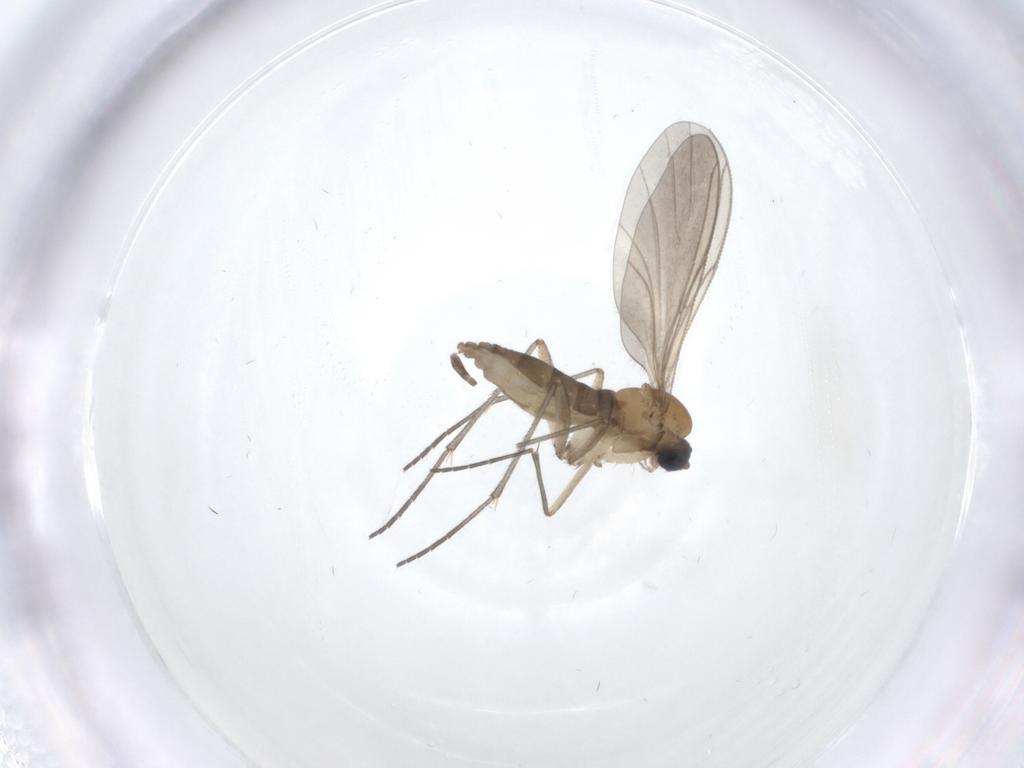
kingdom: Animalia
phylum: Arthropoda
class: Insecta
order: Diptera
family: Sciaridae
